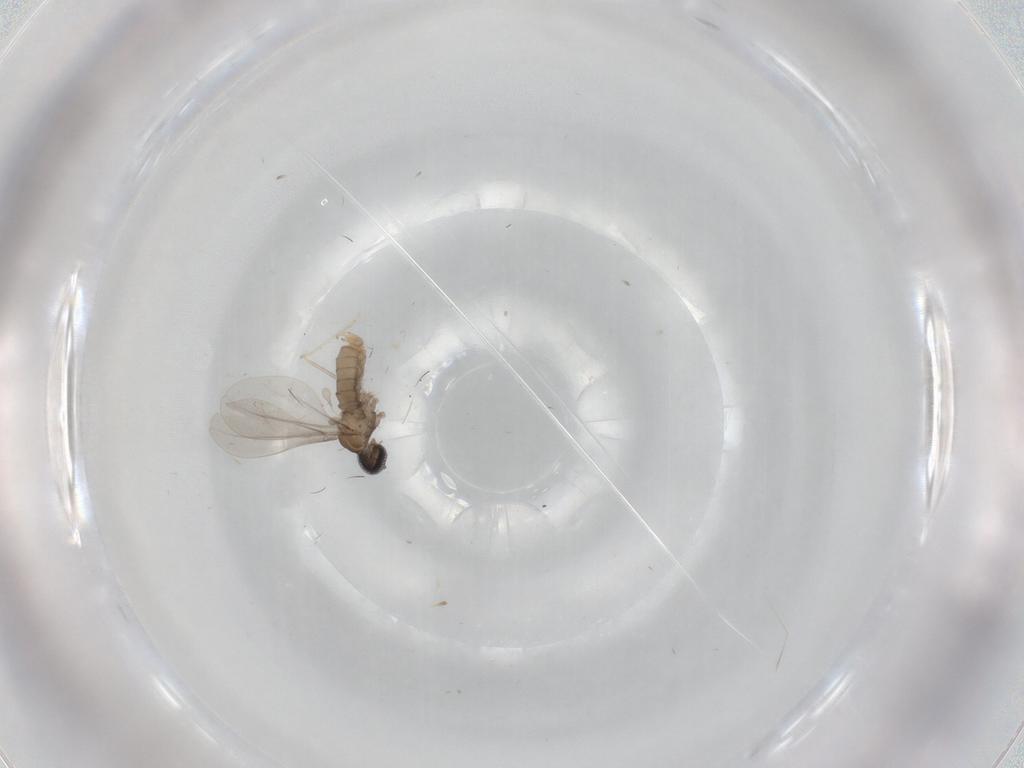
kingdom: Animalia
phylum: Arthropoda
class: Insecta
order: Diptera
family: Cecidomyiidae
